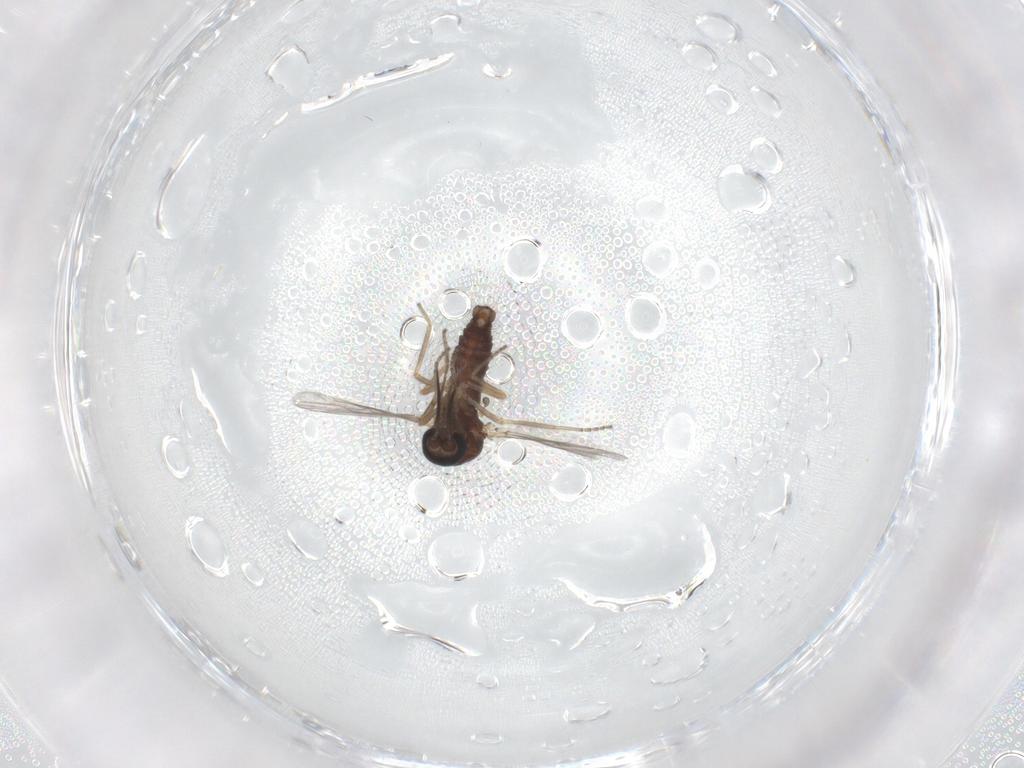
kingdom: Animalia
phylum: Arthropoda
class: Insecta
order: Diptera
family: Ceratopogonidae
